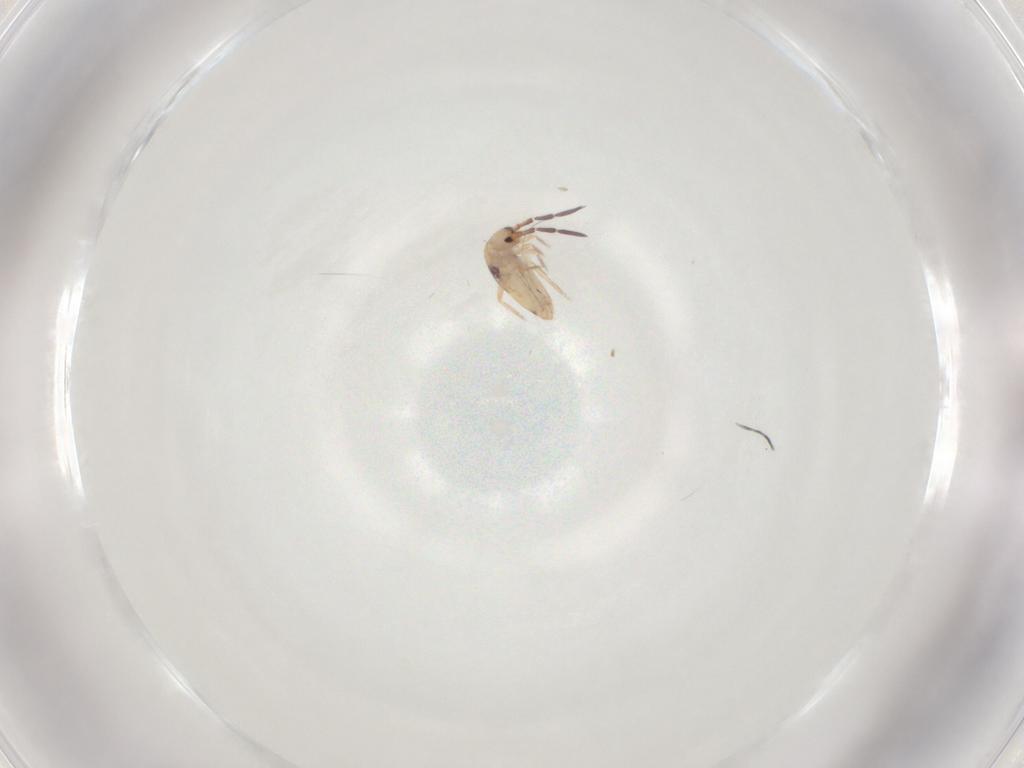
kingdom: Animalia
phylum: Arthropoda
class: Collembola
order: Entomobryomorpha
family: Entomobryidae
